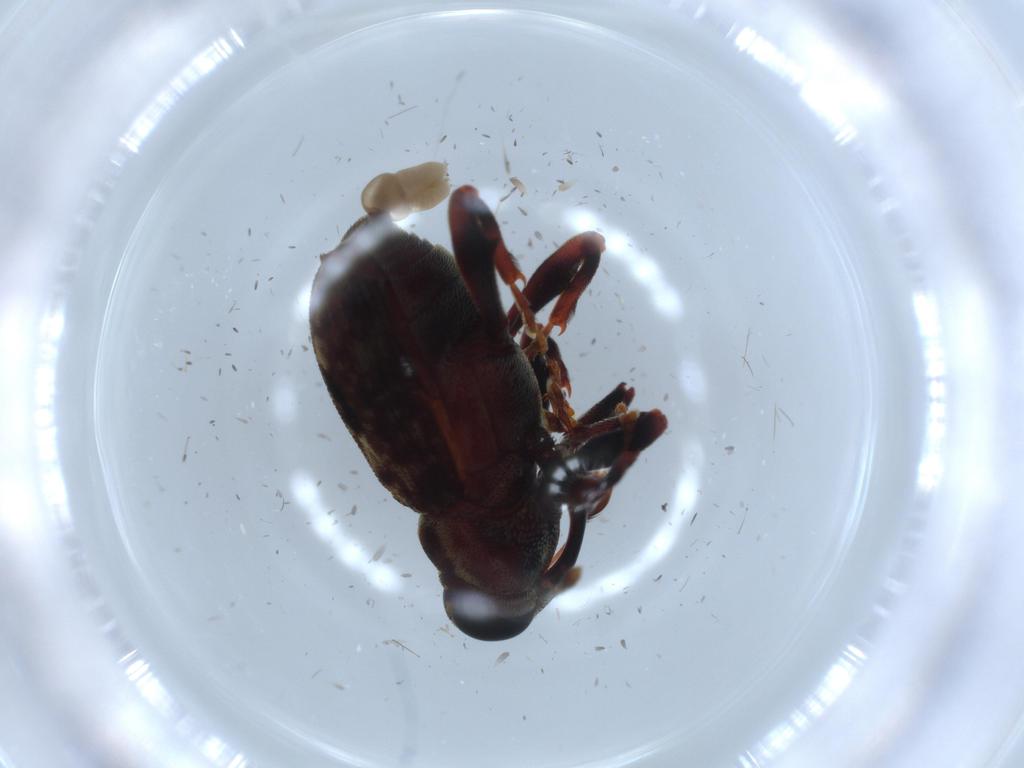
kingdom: Animalia
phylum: Arthropoda
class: Insecta
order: Coleoptera
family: Curculionidae
